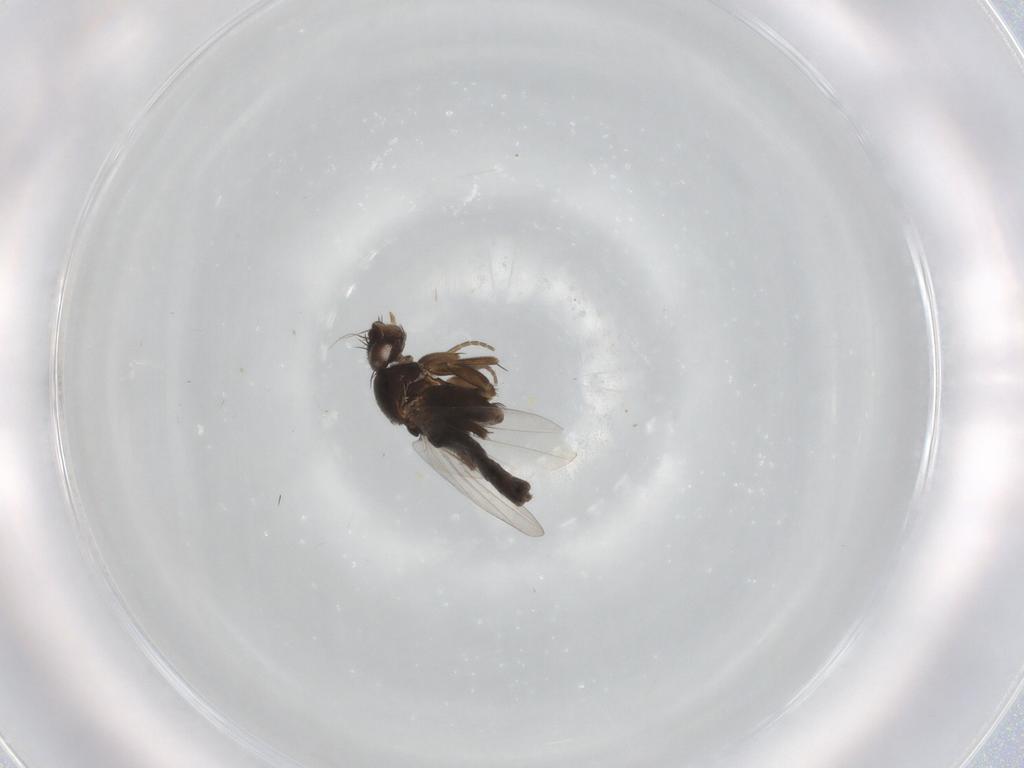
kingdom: Animalia
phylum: Arthropoda
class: Insecta
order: Diptera
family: Phoridae
